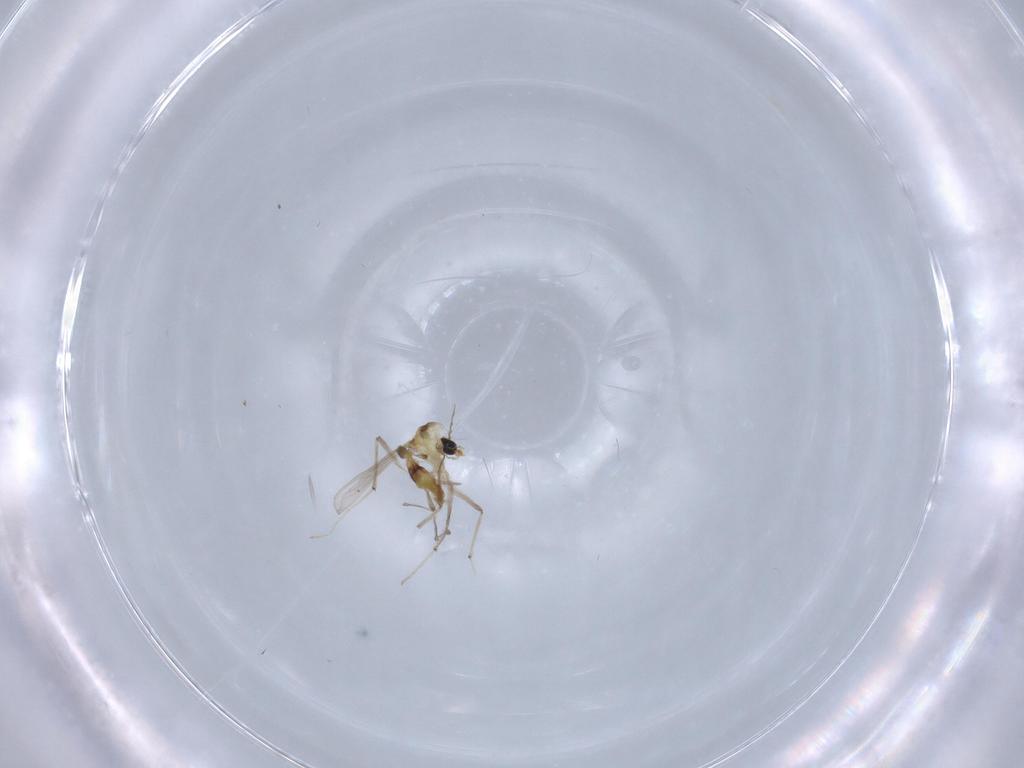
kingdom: Animalia
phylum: Arthropoda
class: Insecta
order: Diptera
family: Chironomidae
